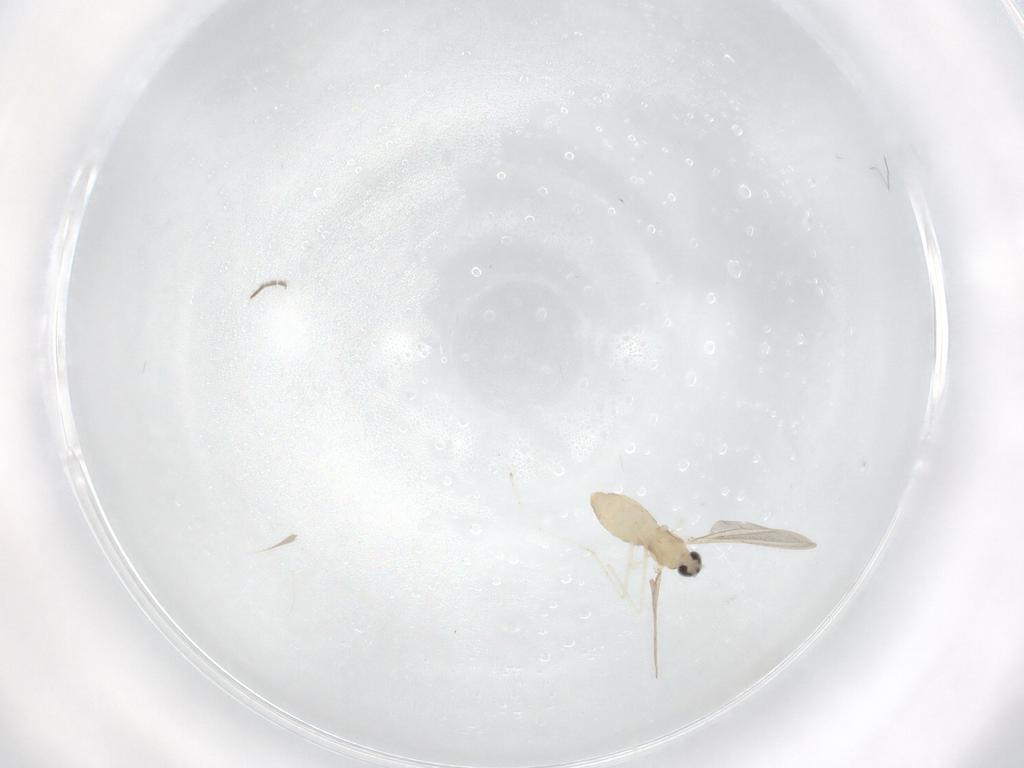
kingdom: Animalia
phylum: Arthropoda
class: Insecta
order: Diptera
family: Cecidomyiidae
